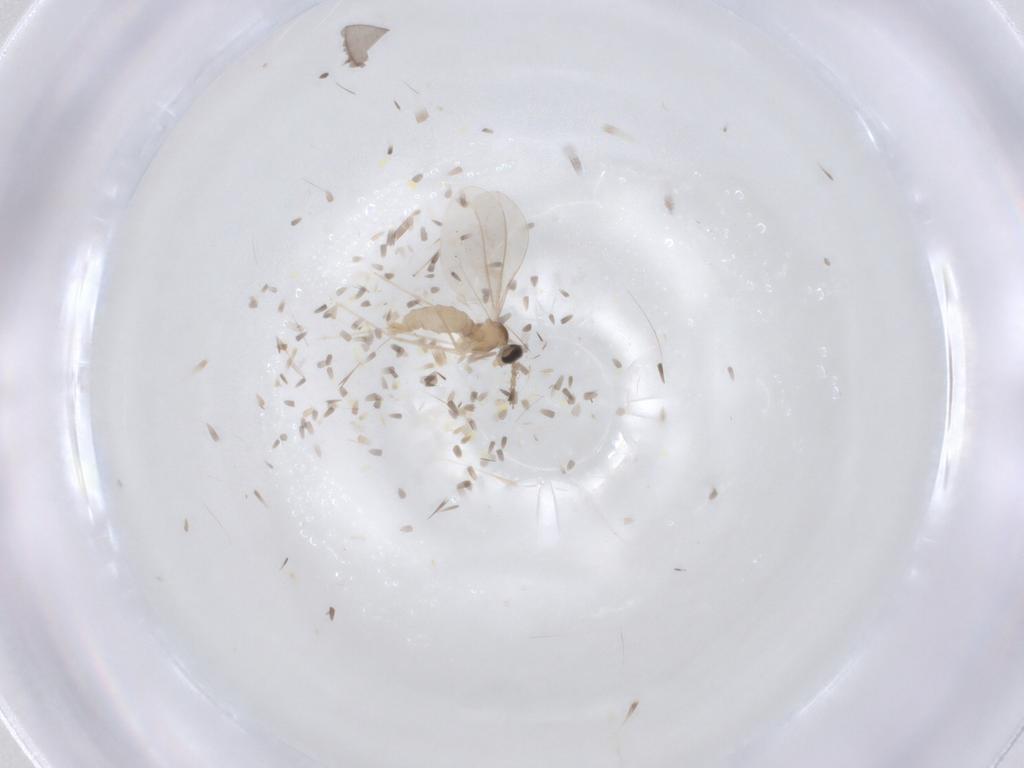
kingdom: Animalia
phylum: Arthropoda
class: Insecta
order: Diptera
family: Cecidomyiidae
